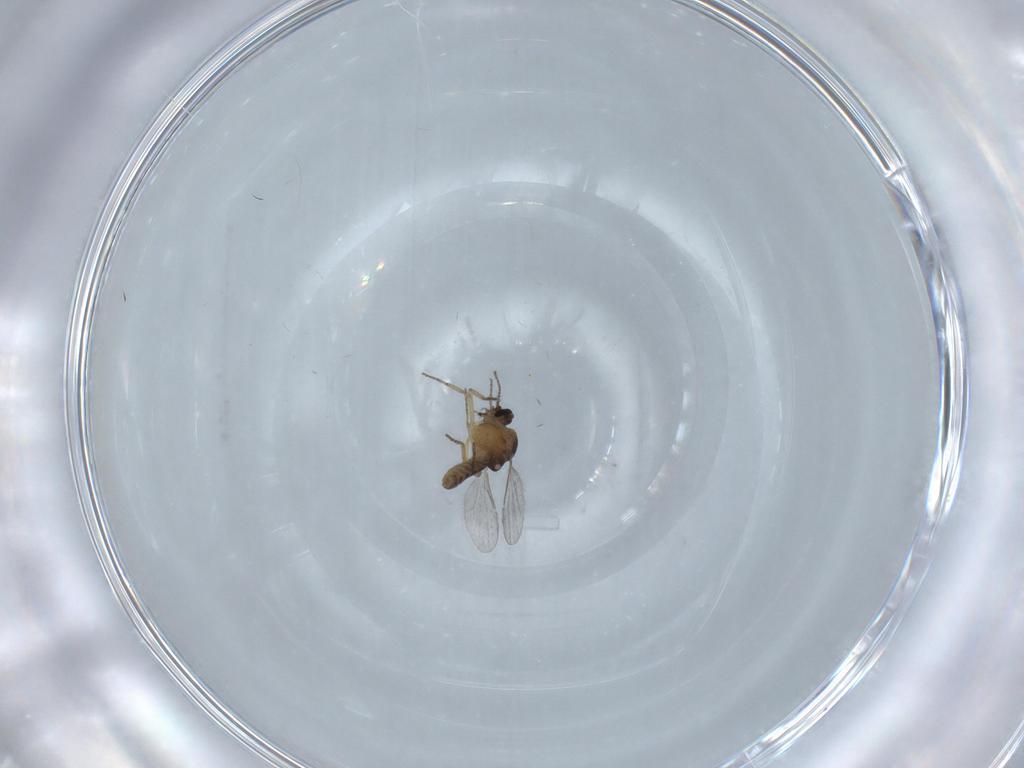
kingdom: Animalia
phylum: Arthropoda
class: Insecta
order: Diptera
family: Ceratopogonidae
